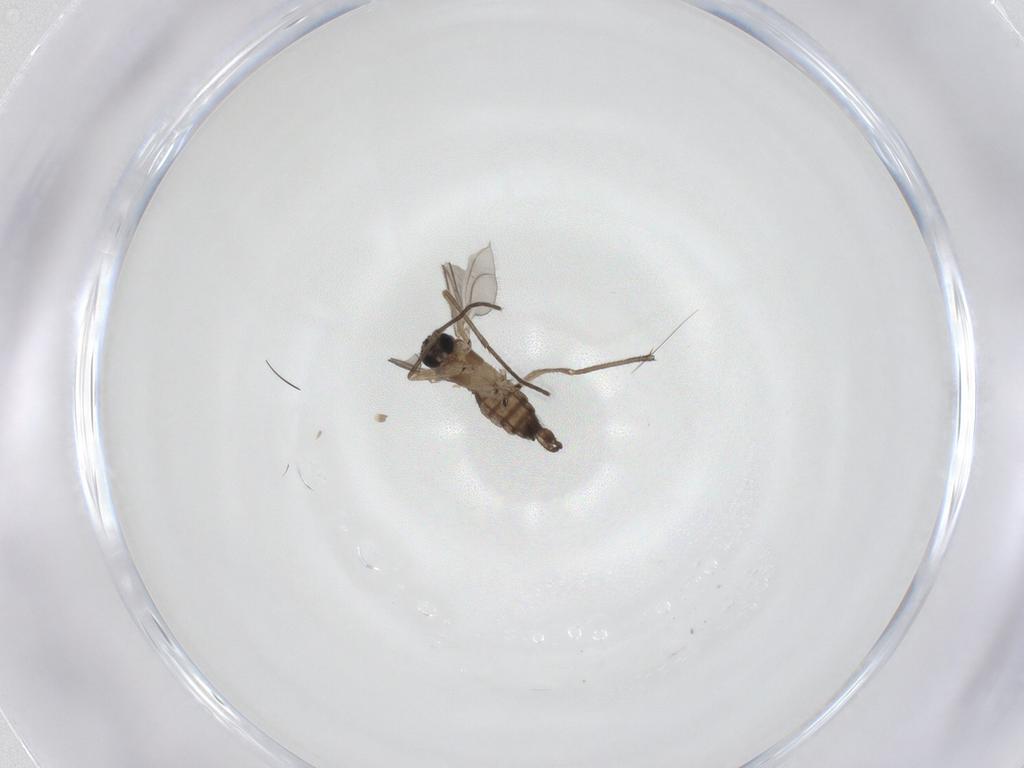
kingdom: Animalia
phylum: Arthropoda
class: Insecta
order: Diptera
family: Sciaridae
